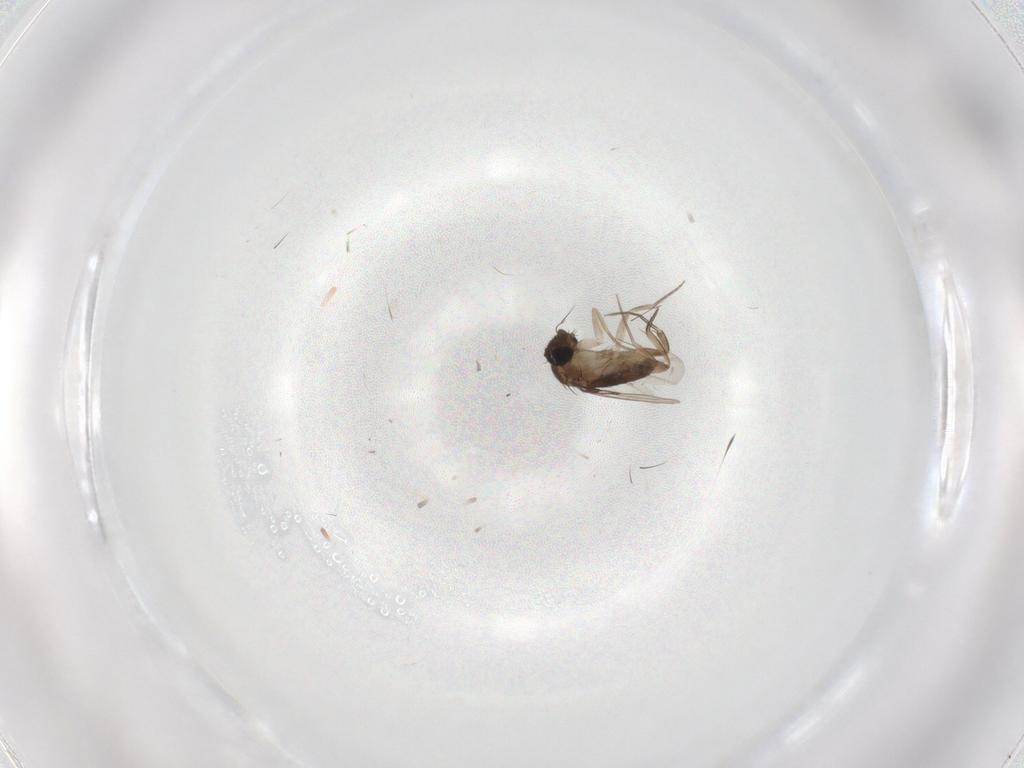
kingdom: Animalia
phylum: Arthropoda
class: Insecta
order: Diptera
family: Phoridae
